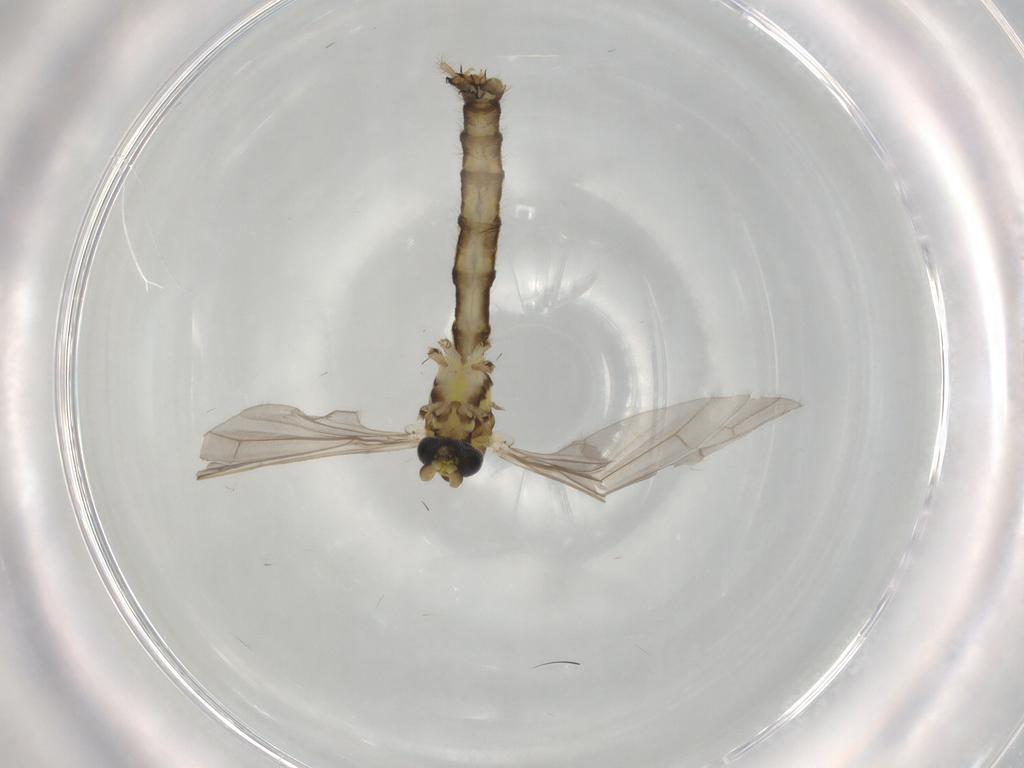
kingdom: Animalia
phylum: Arthropoda
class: Insecta
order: Diptera
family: Limoniidae
